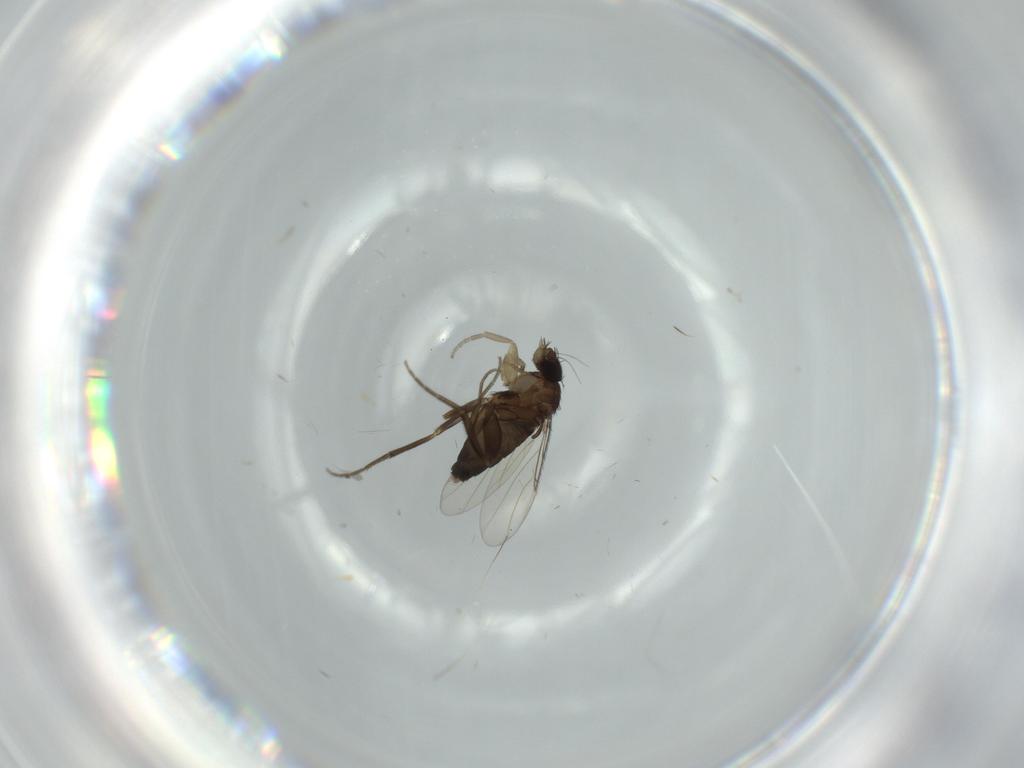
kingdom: Animalia
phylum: Arthropoda
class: Insecta
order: Diptera
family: Phoridae
